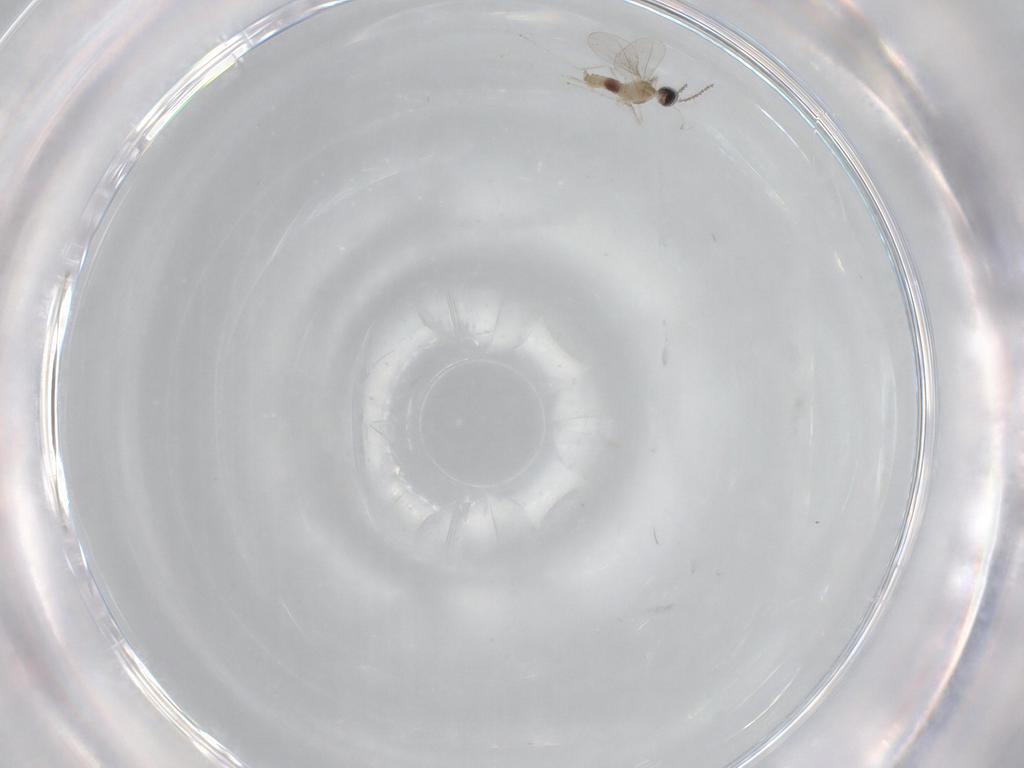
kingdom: Animalia
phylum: Arthropoda
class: Insecta
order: Diptera
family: Cecidomyiidae
